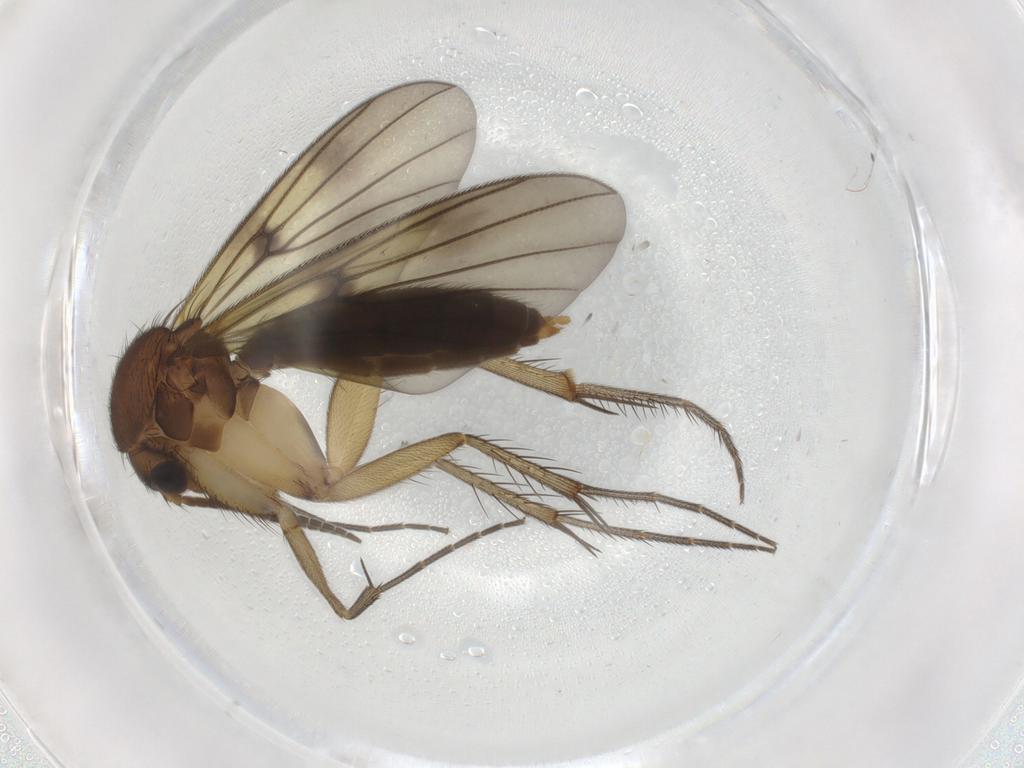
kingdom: Animalia
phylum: Arthropoda
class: Insecta
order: Diptera
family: Mycetophilidae
